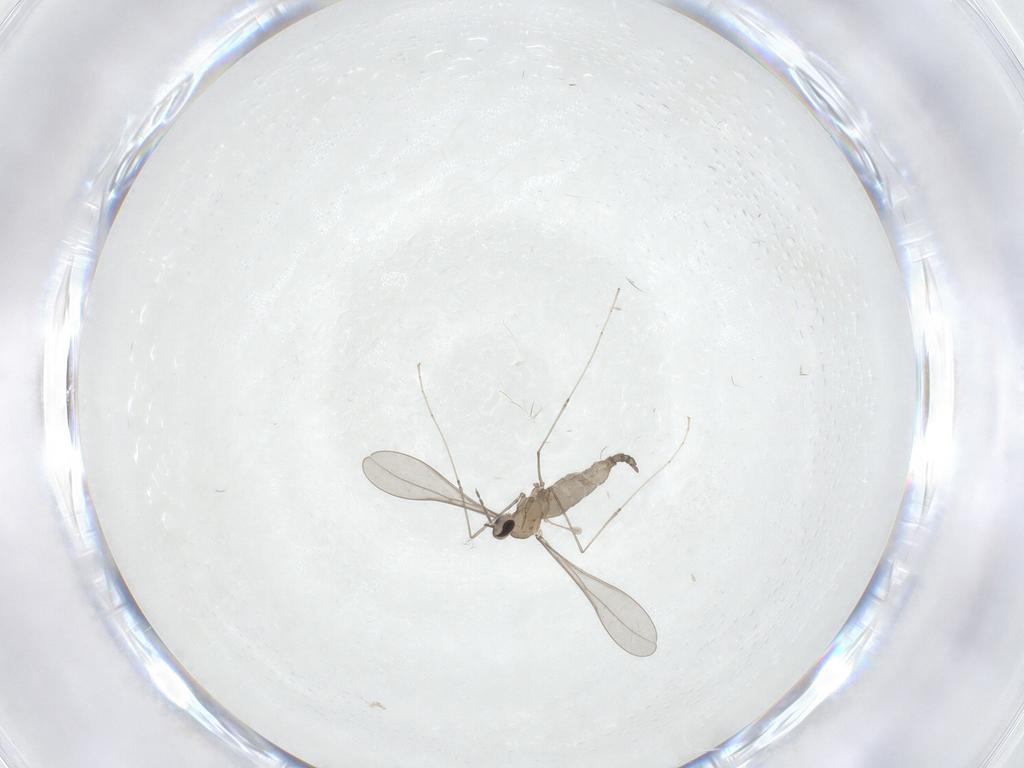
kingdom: Animalia
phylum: Arthropoda
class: Insecta
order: Diptera
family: Cecidomyiidae
